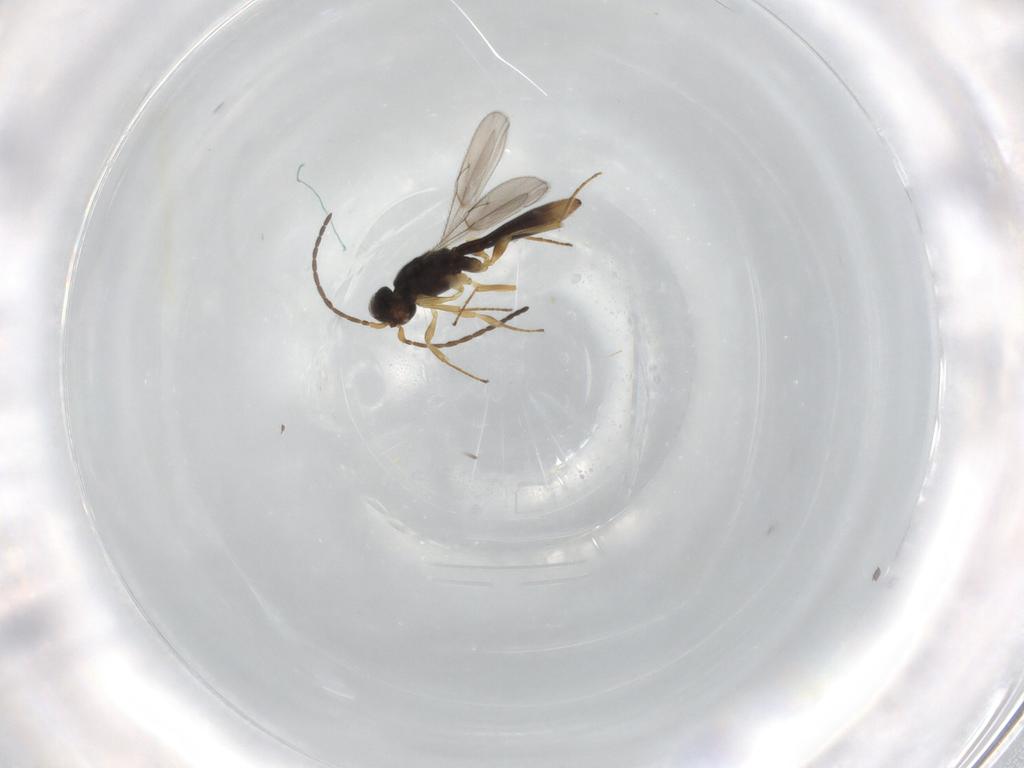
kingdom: Animalia
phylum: Arthropoda
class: Insecta
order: Hymenoptera
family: Scelionidae
